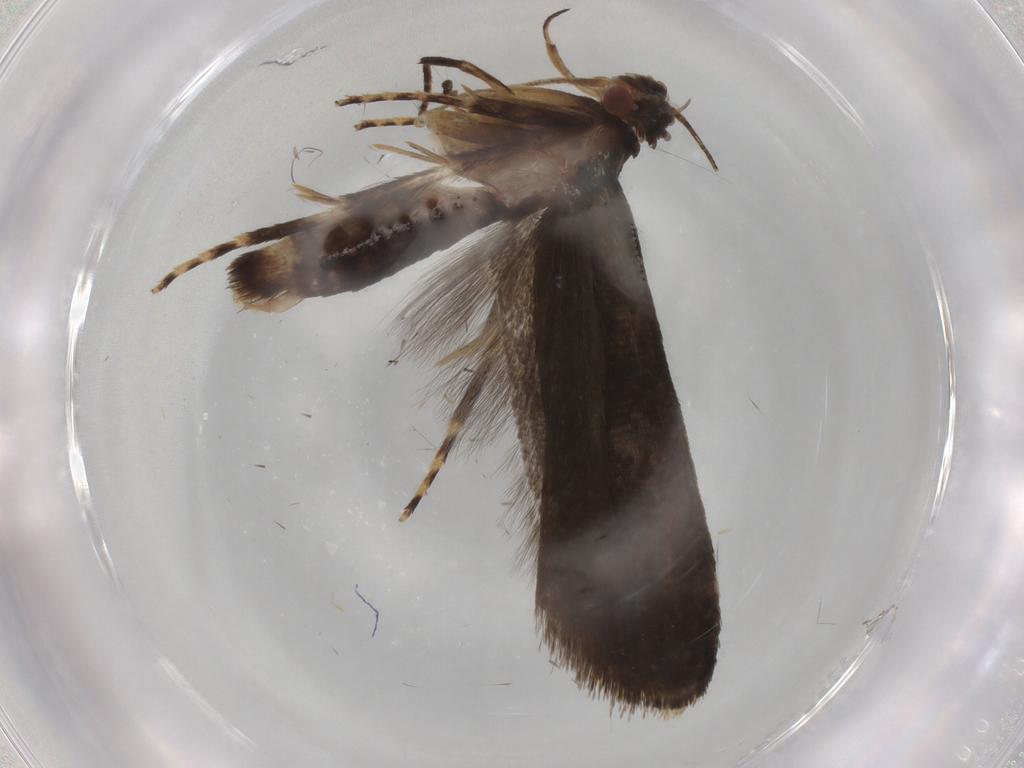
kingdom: Animalia
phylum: Arthropoda
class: Insecta
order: Lepidoptera
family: Gelechiidae
